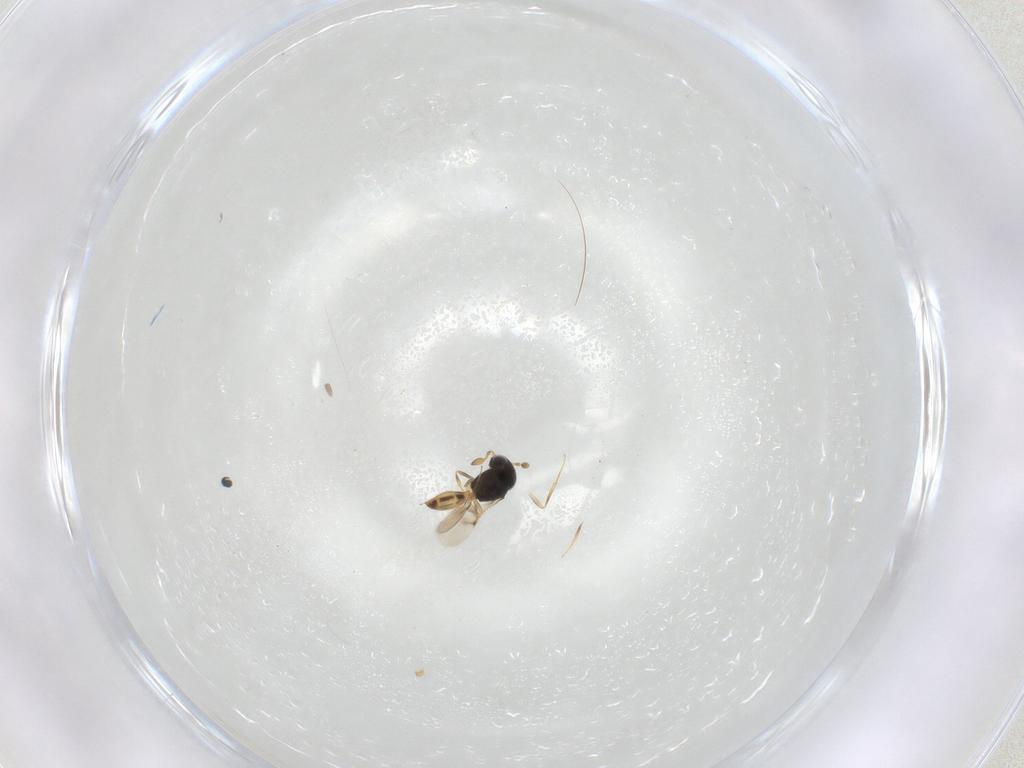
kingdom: Animalia
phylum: Arthropoda
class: Insecta
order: Hymenoptera
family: Scelionidae
